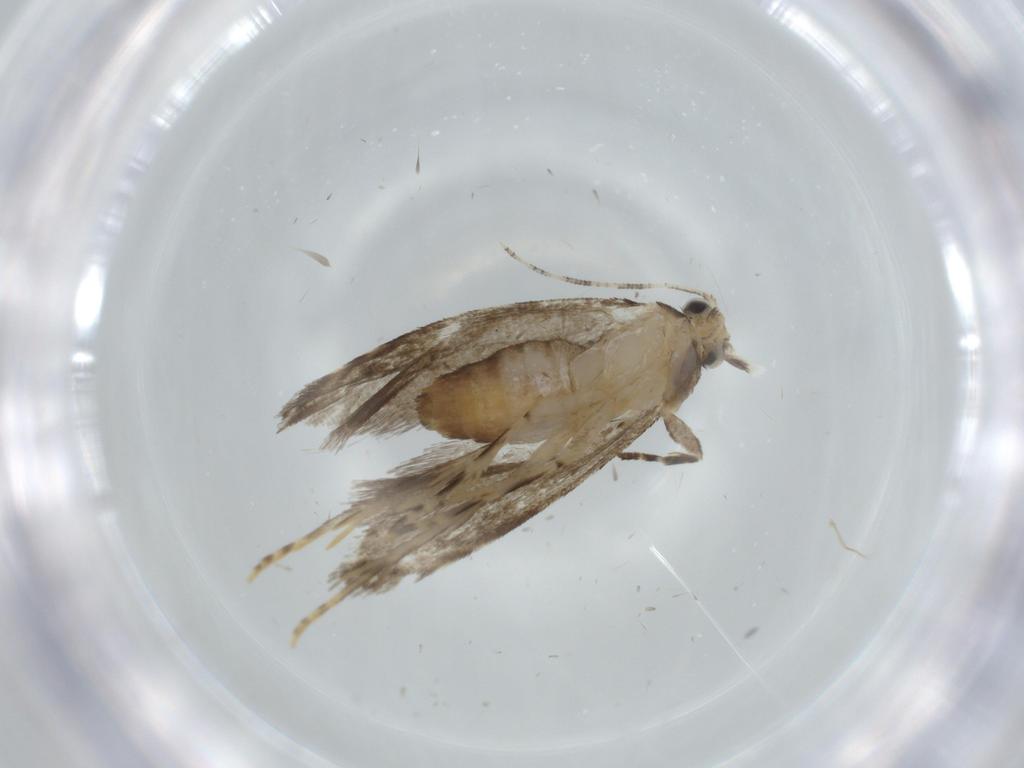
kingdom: Animalia
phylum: Arthropoda
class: Insecta
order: Lepidoptera
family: Tineidae
